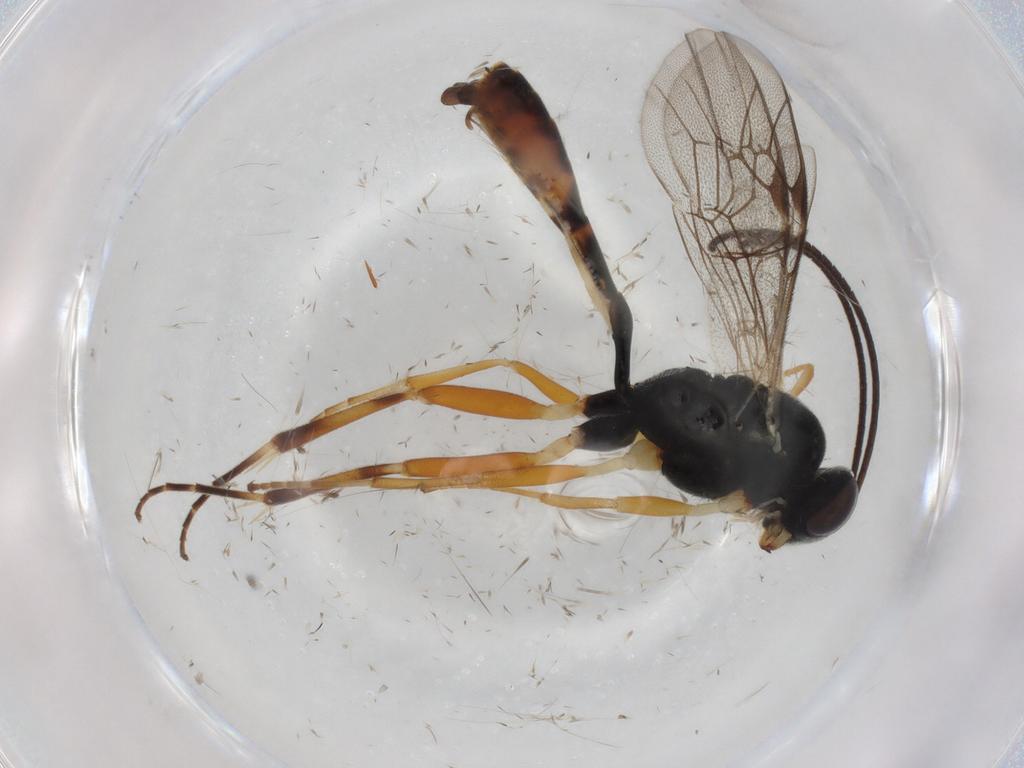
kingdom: Animalia
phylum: Arthropoda
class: Insecta
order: Hymenoptera
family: Ichneumonidae
